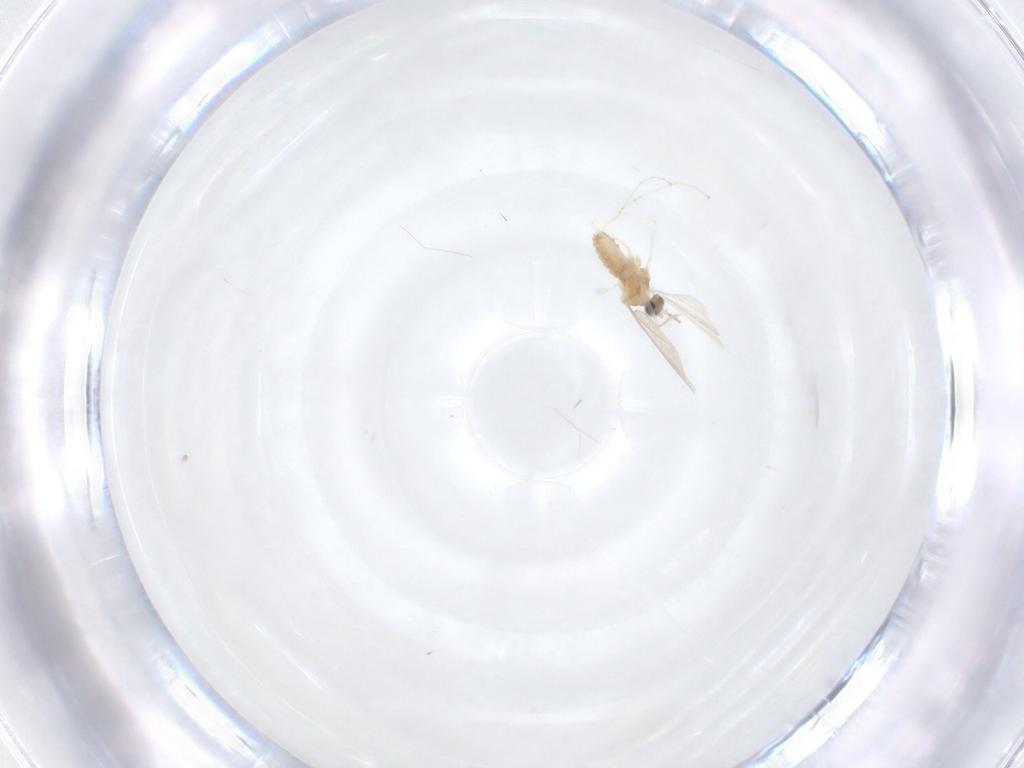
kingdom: Animalia
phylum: Arthropoda
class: Insecta
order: Diptera
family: Cecidomyiidae
